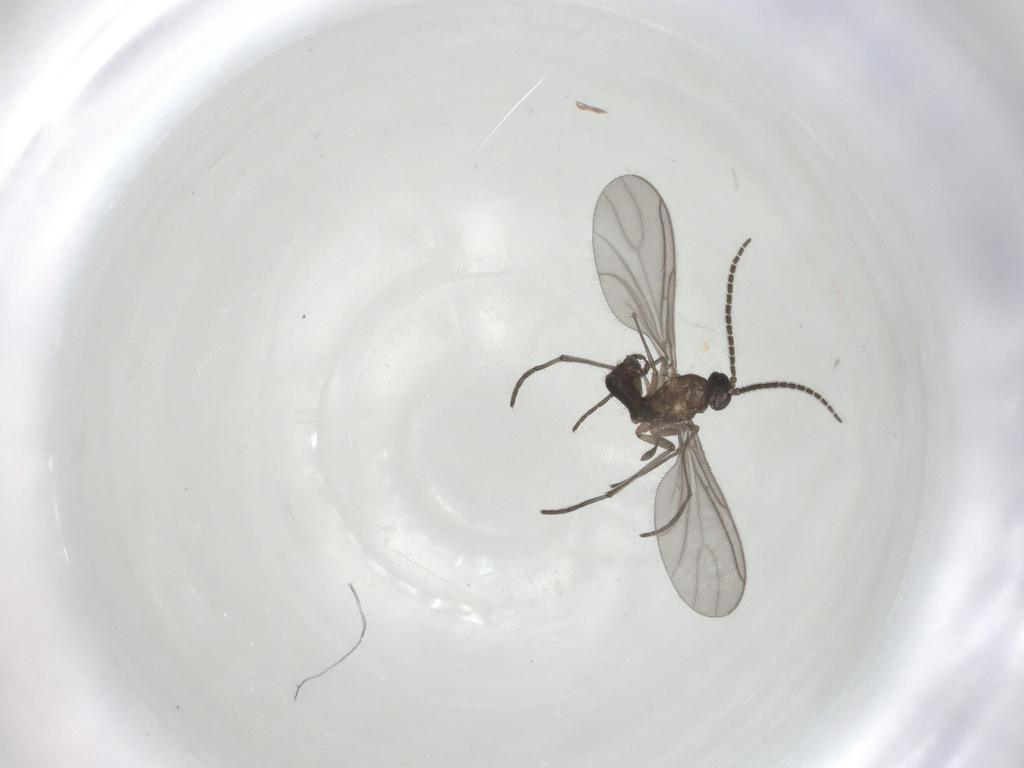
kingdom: Animalia
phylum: Arthropoda
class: Insecta
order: Diptera
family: Sciaridae
